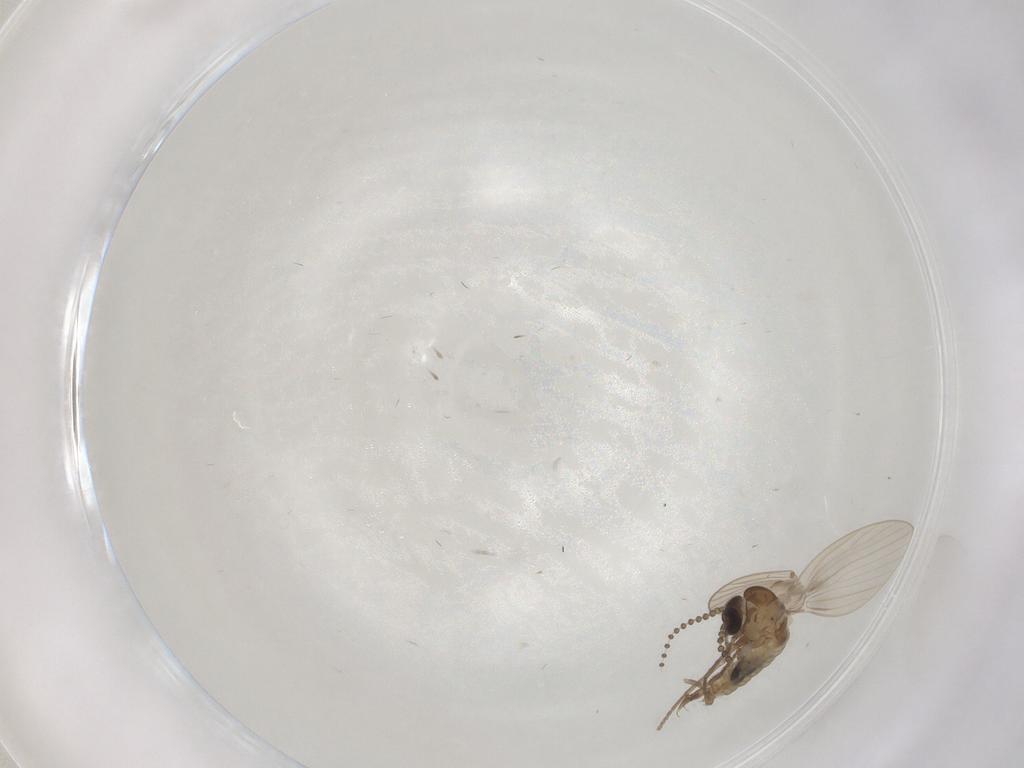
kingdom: Animalia
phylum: Arthropoda
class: Insecta
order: Diptera
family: Psychodidae
